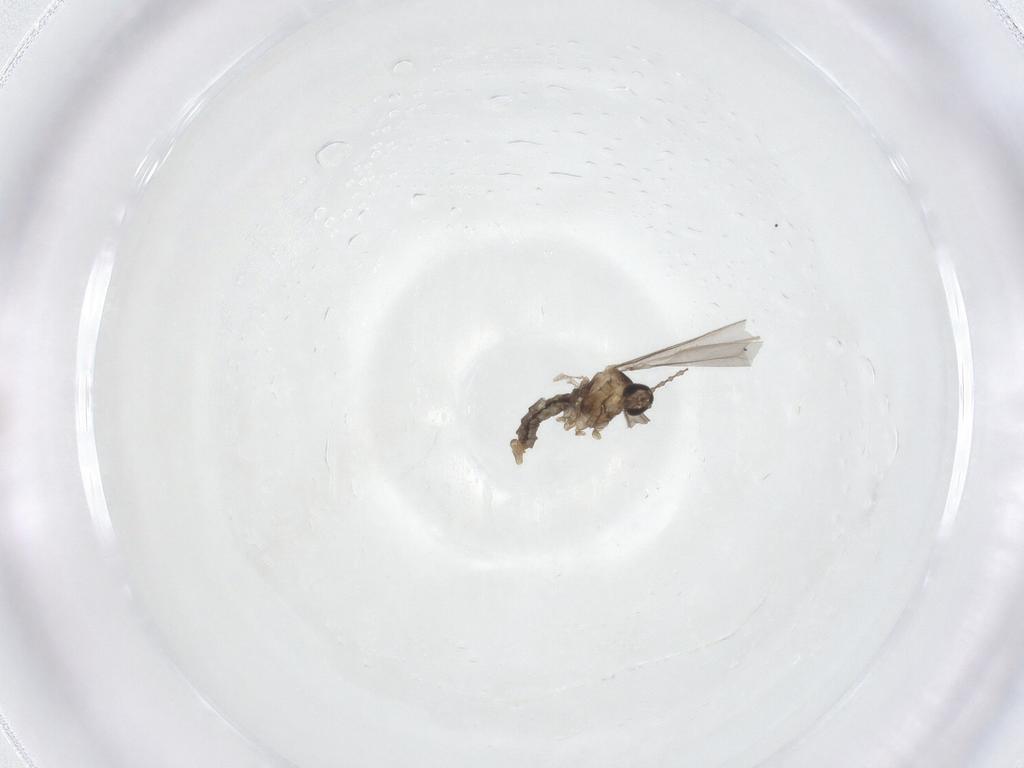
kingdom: Animalia
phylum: Arthropoda
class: Insecta
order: Diptera
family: Cecidomyiidae
